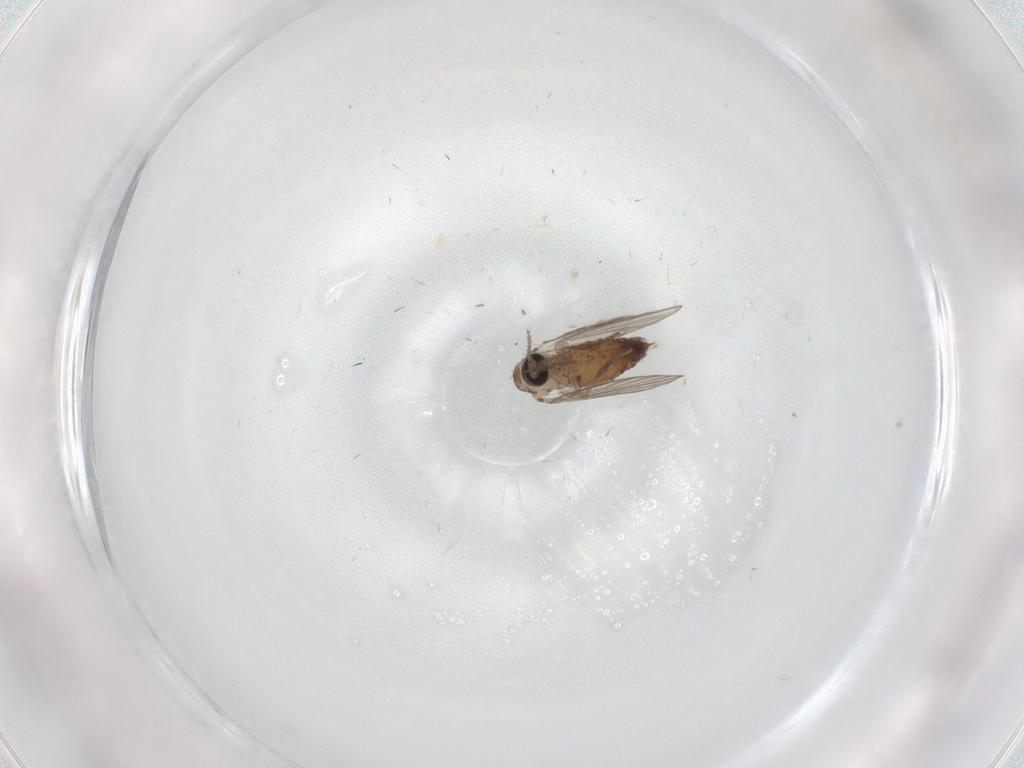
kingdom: Animalia
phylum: Arthropoda
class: Insecta
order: Diptera
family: Psychodidae
